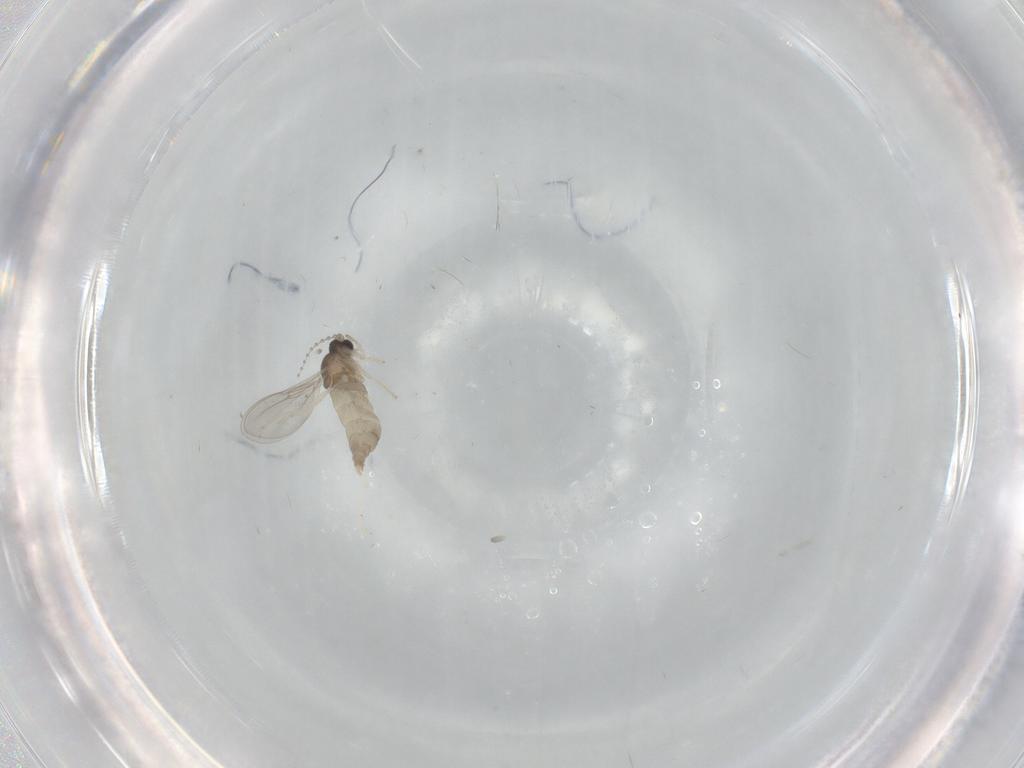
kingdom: Animalia
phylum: Arthropoda
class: Insecta
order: Diptera
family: Cecidomyiidae
